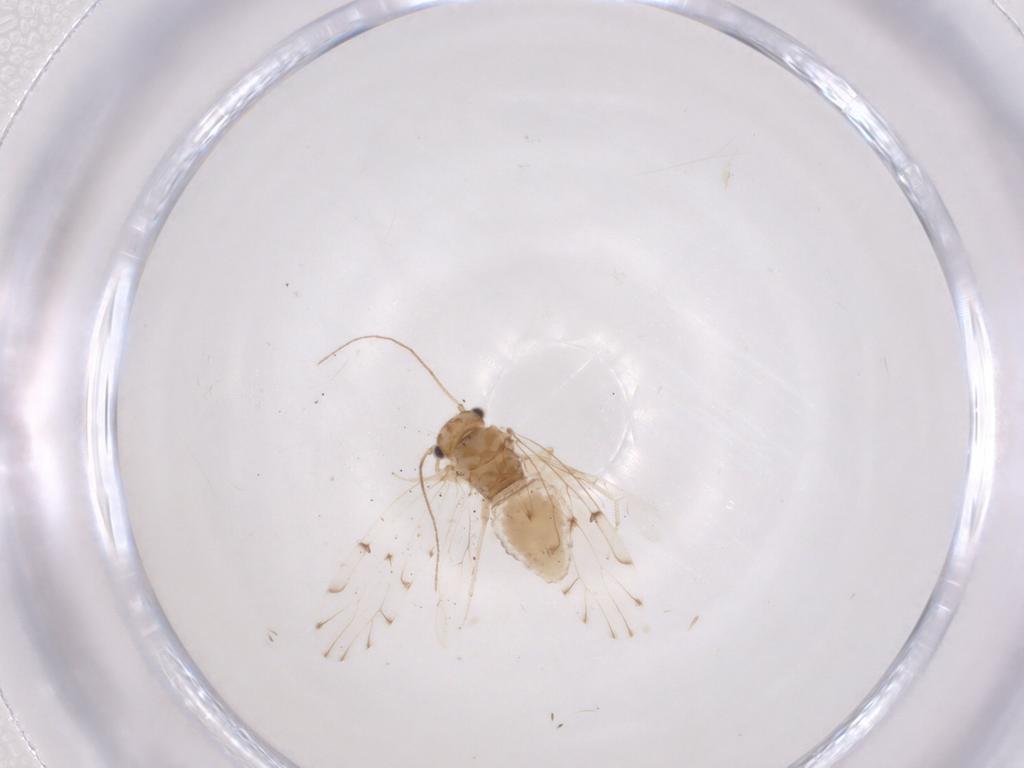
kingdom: Animalia
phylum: Arthropoda
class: Insecta
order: Psocodea
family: Elipsocidae
